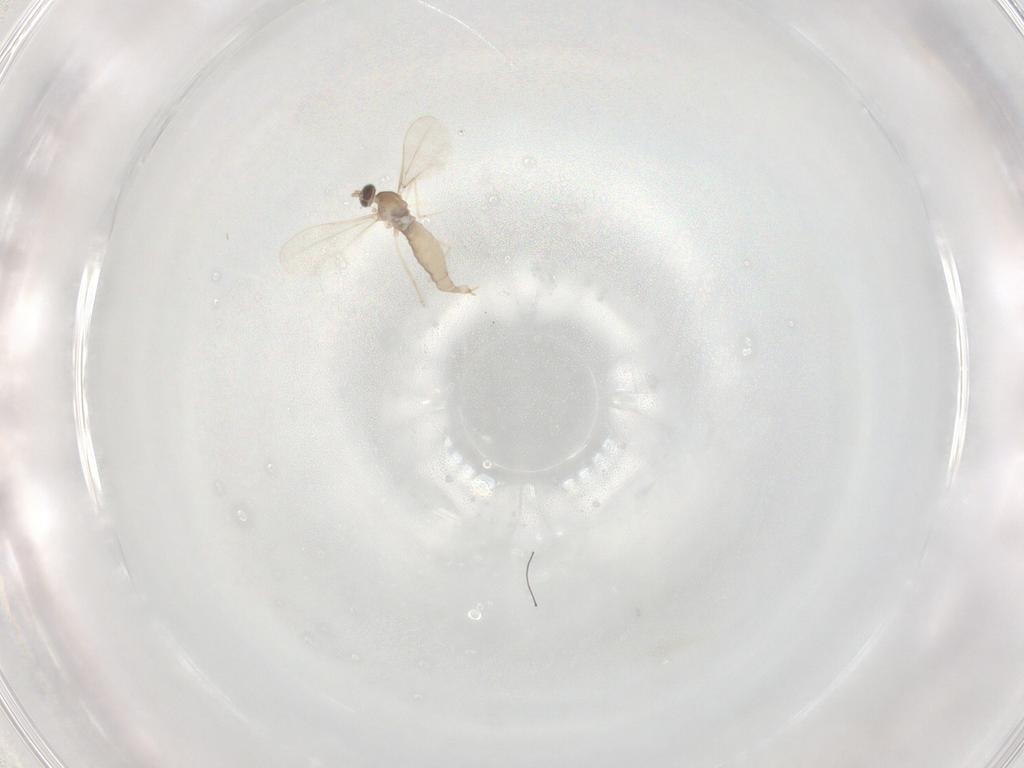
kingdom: Animalia
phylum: Arthropoda
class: Insecta
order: Diptera
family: Cecidomyiidae
